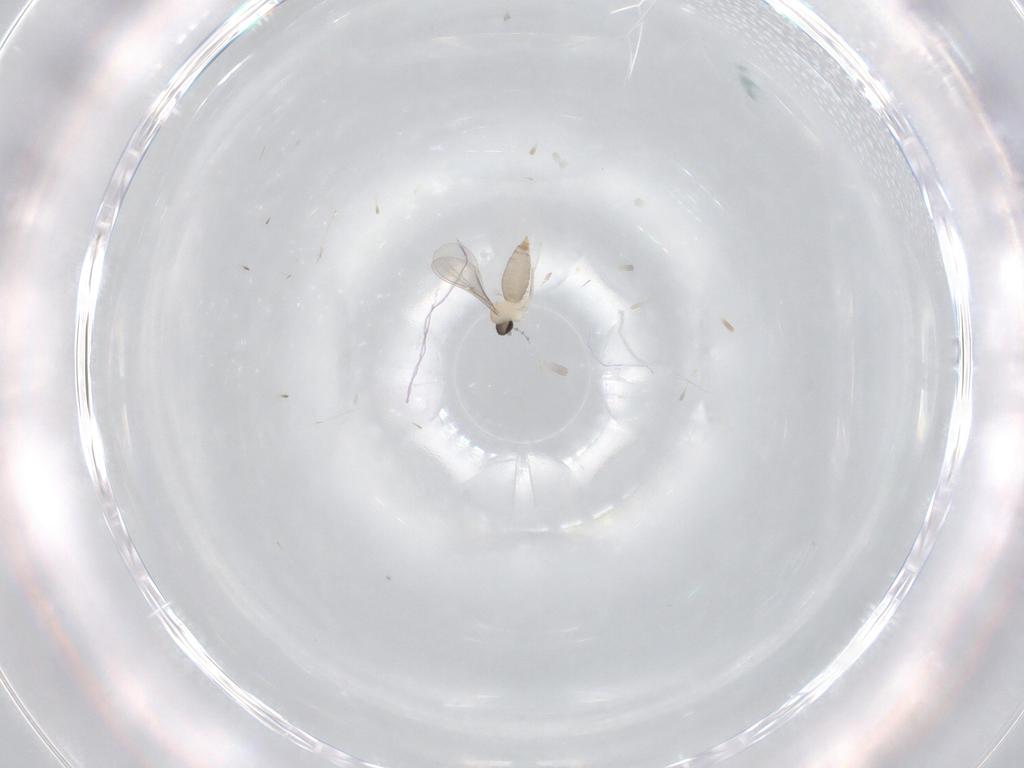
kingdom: Animalia
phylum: Arthropoda
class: Insecta
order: Diptera
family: Cecidomyiidae
